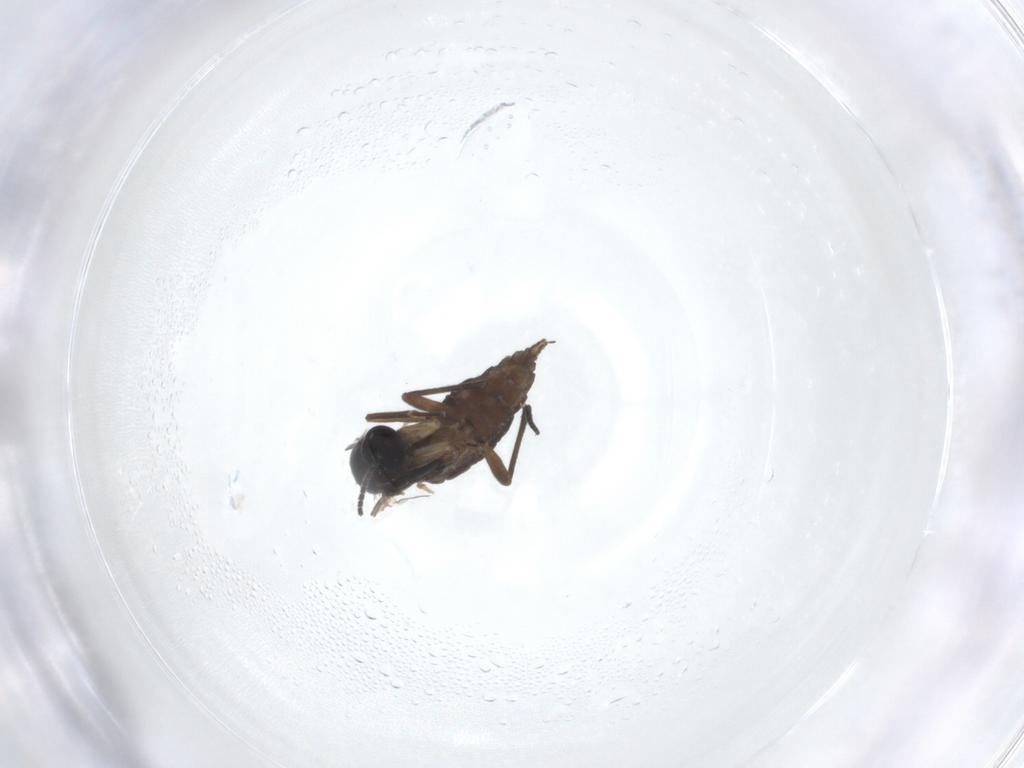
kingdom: Animalia
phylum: Arthropoda
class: Insecta
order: Diptera
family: Sciaridae
